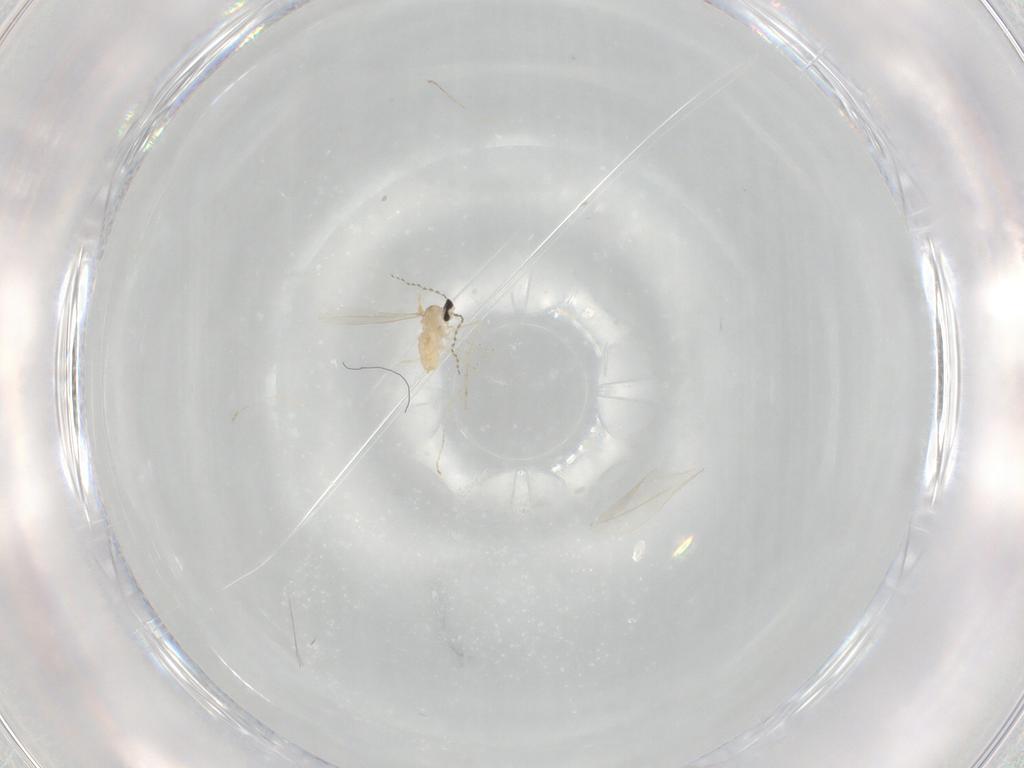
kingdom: Animalia
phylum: Arthropoda
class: Insecta
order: Diptera
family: Cecidomyiidae
